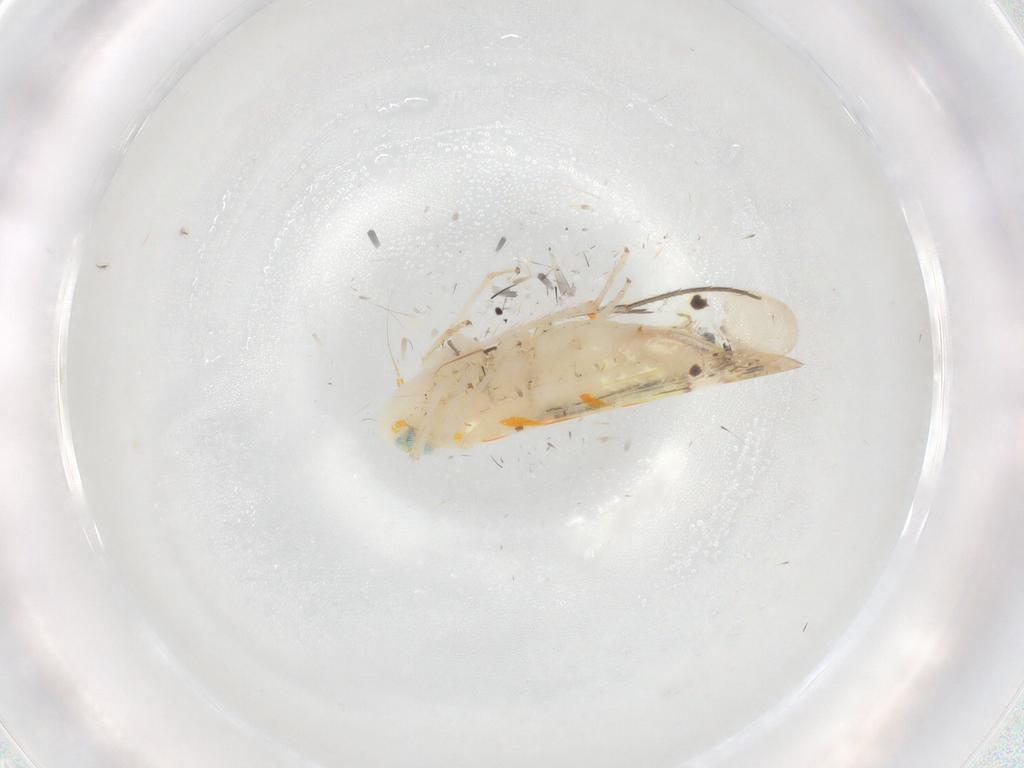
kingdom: Animalia
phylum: Arthropoda
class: Insecta
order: Hemiptera
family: Cicadellidae
